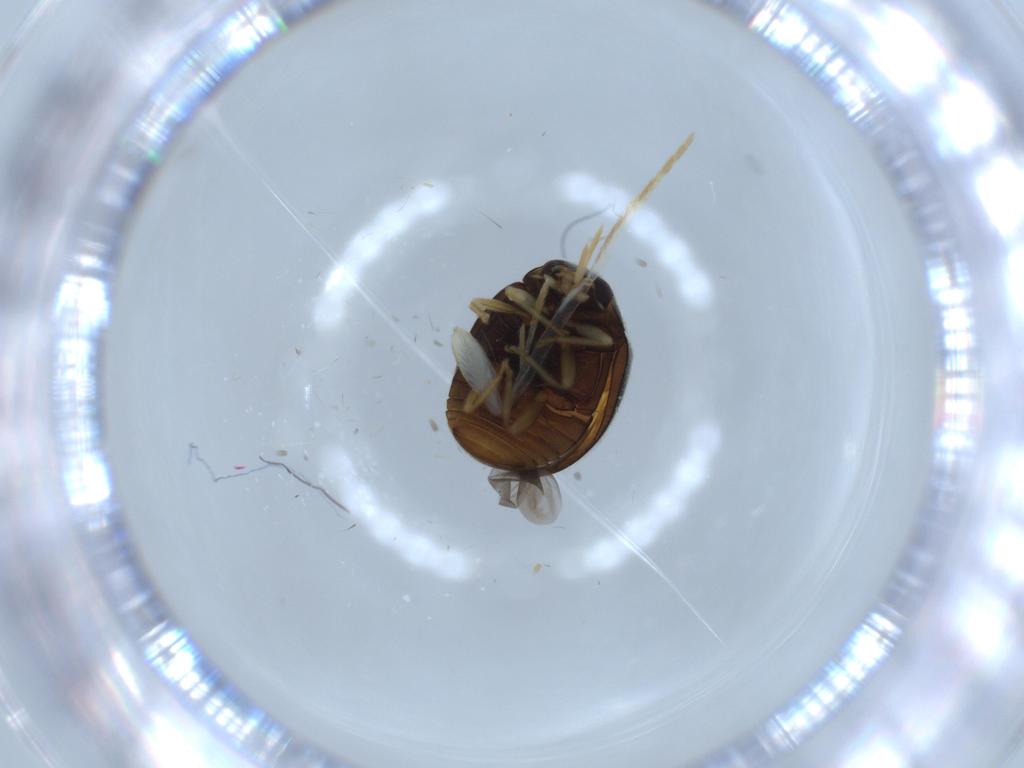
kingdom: Animalia
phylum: Arthropoda
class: Insecta
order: Coleoptera
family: Coccinellidae
